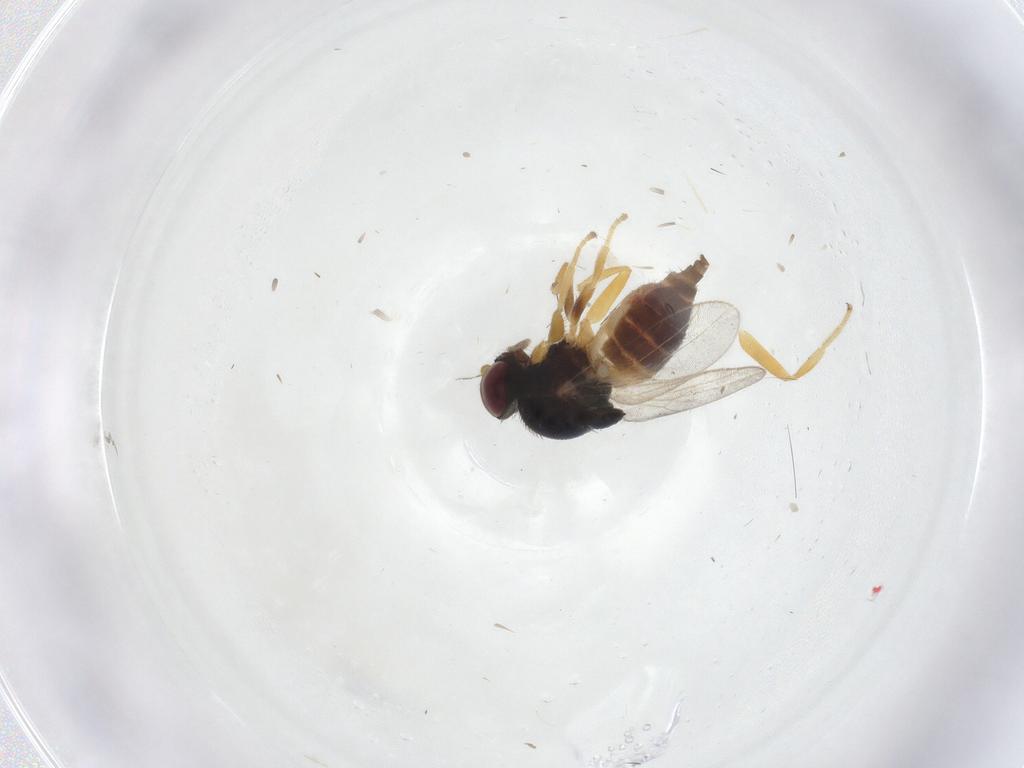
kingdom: Animalia
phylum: Arthropoda
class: Insecta
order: Diptera
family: Chloropidae
